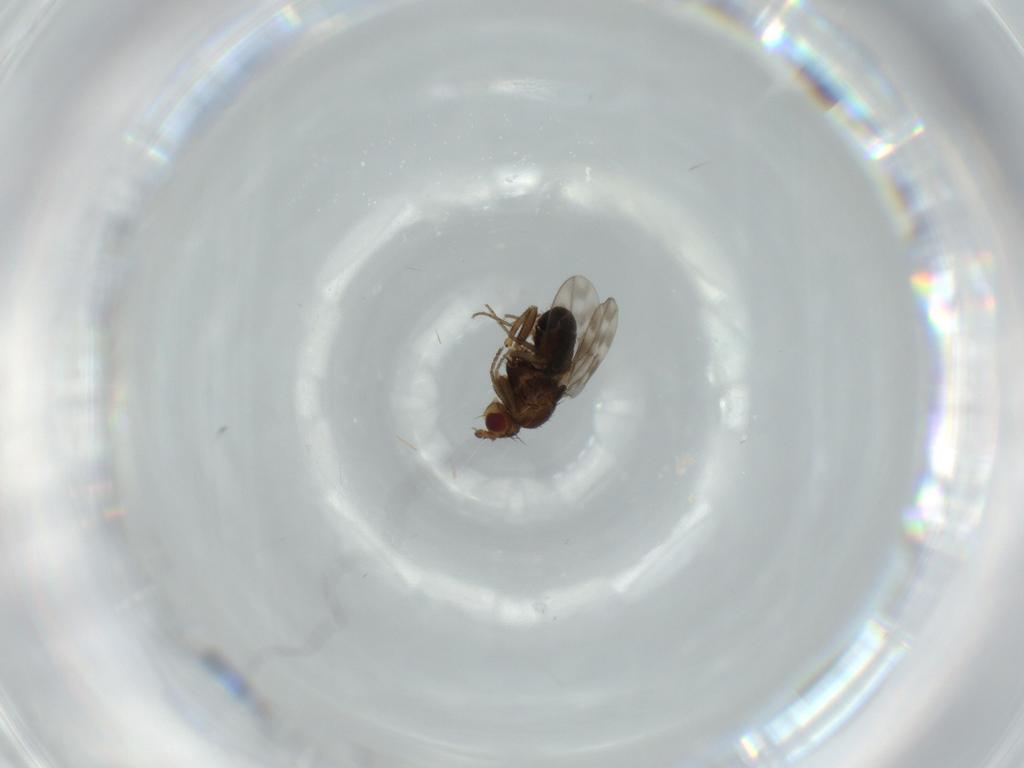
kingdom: Animalia
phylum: Arthropoda
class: Insecta
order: Diptera
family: Sphaeroceridae
